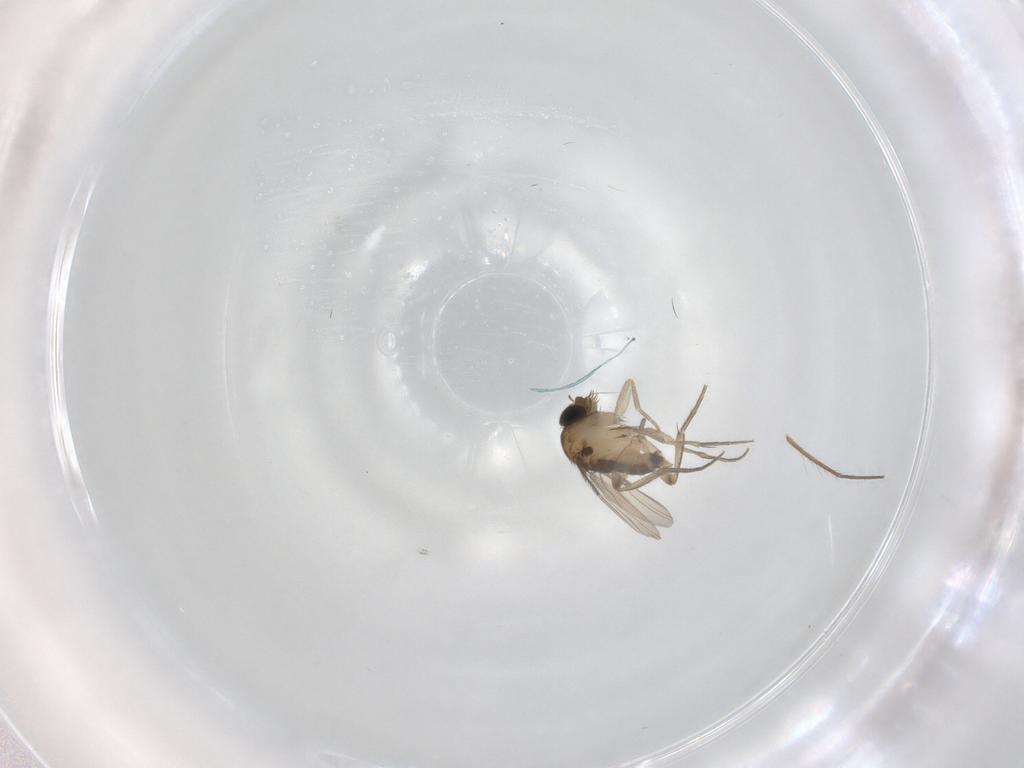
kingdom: Animalia
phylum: Arthropoda
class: Insecta
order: Diptera
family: Phoridae
